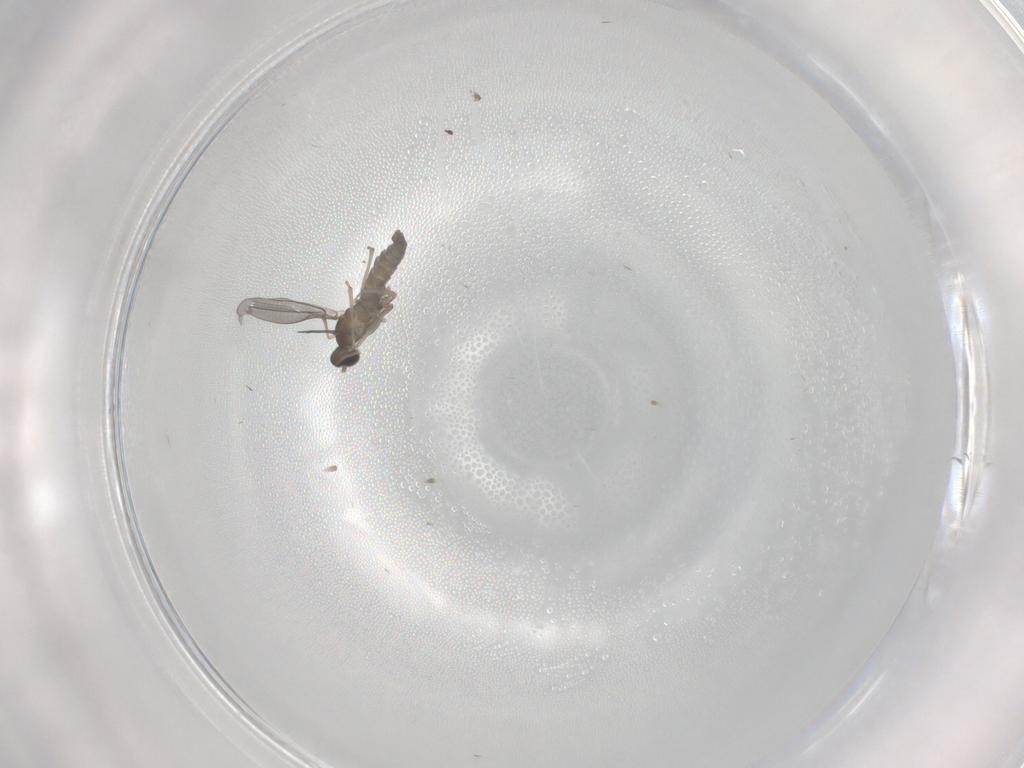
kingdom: Animalia
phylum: Arthropoda
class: Insecta
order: Diptera
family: Cecidomyiidae
